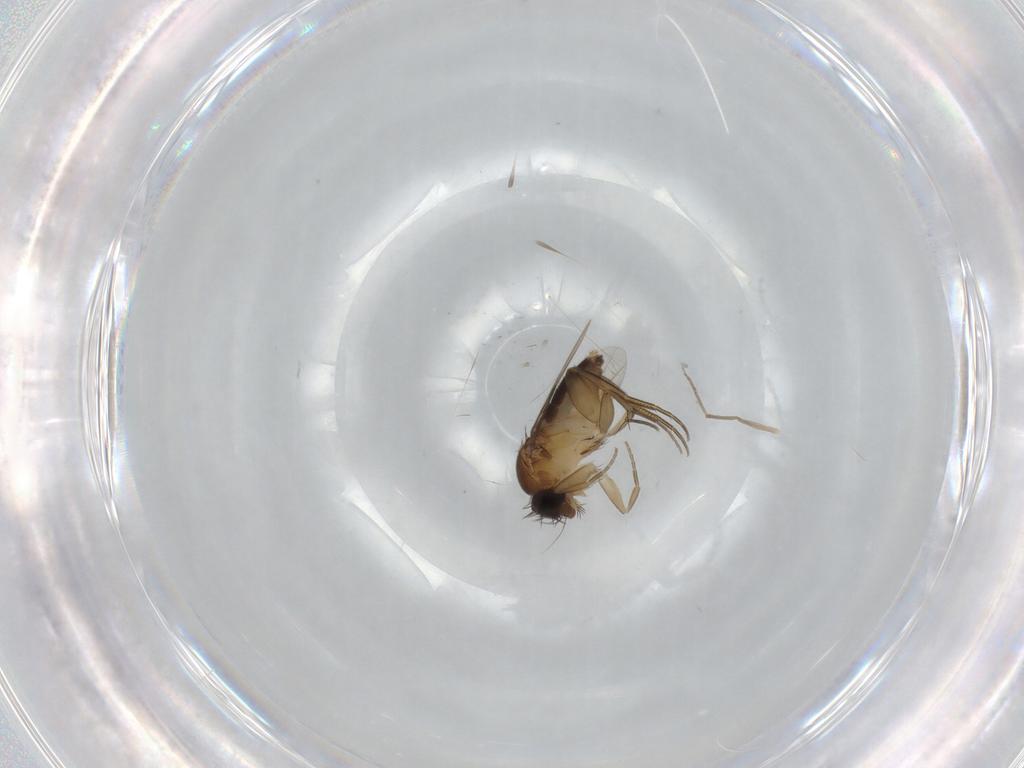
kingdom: Animalia
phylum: Arthropoda
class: Insecta
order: Diptera
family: Phoridae
